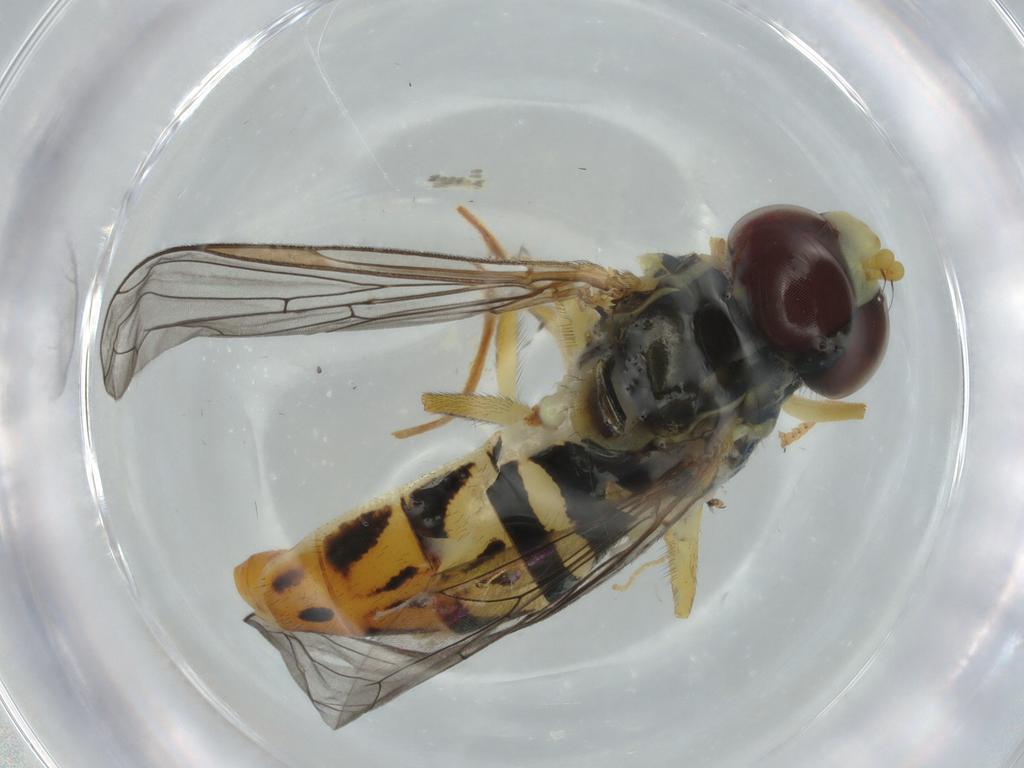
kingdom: Animalia
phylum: Arthropoda
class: Insecta
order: Diptera
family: Cecidomyiidae
